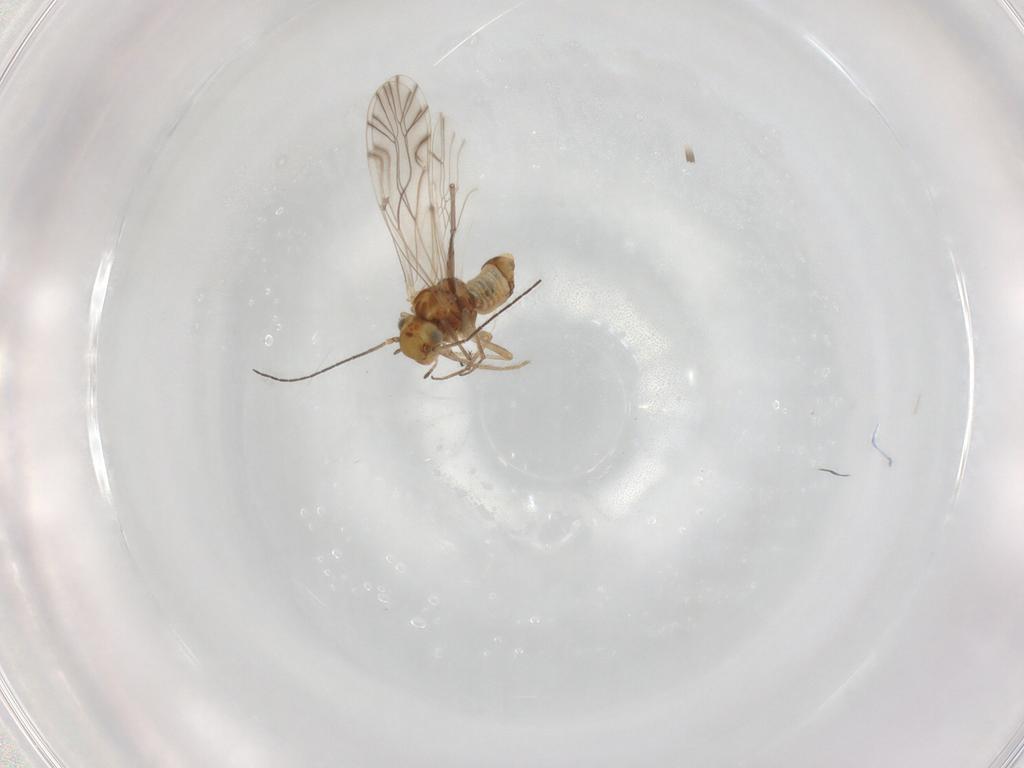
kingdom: Animalia
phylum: Arthropoda
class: Insecta
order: Psocodea
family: Lachesillidae
